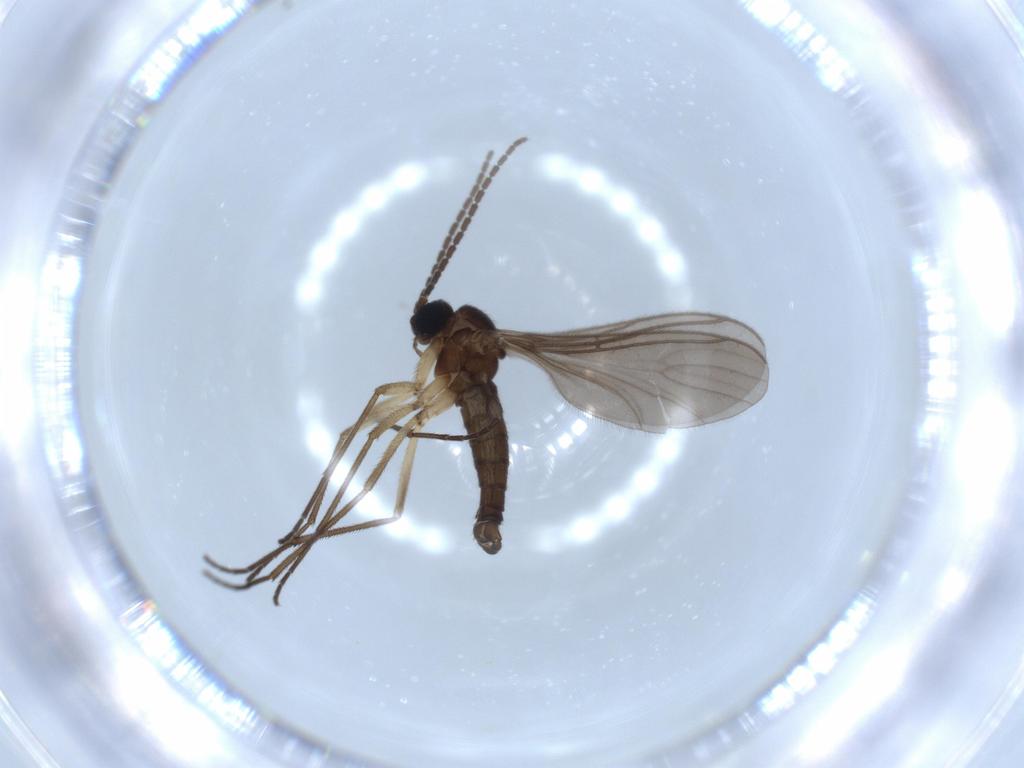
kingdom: Animalia
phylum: Arthropoda
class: Insecta
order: Diptera
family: Sciaridae
